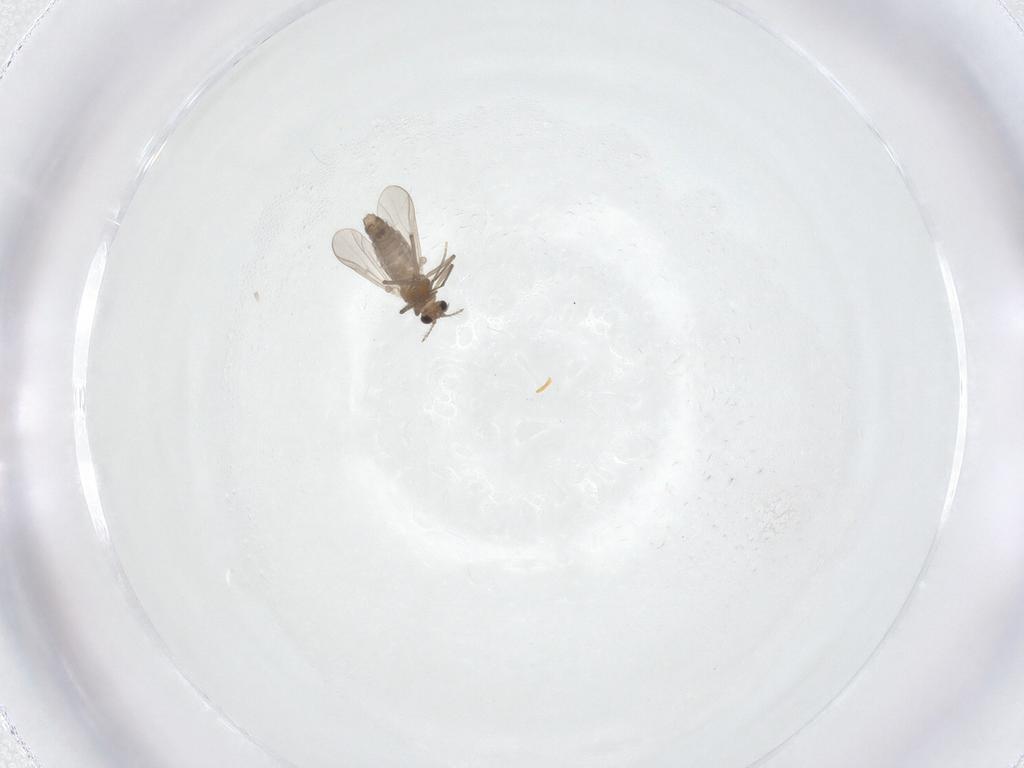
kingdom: Animalia
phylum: Arthropoda
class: Insecta
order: Diptera
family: Chironomidae
